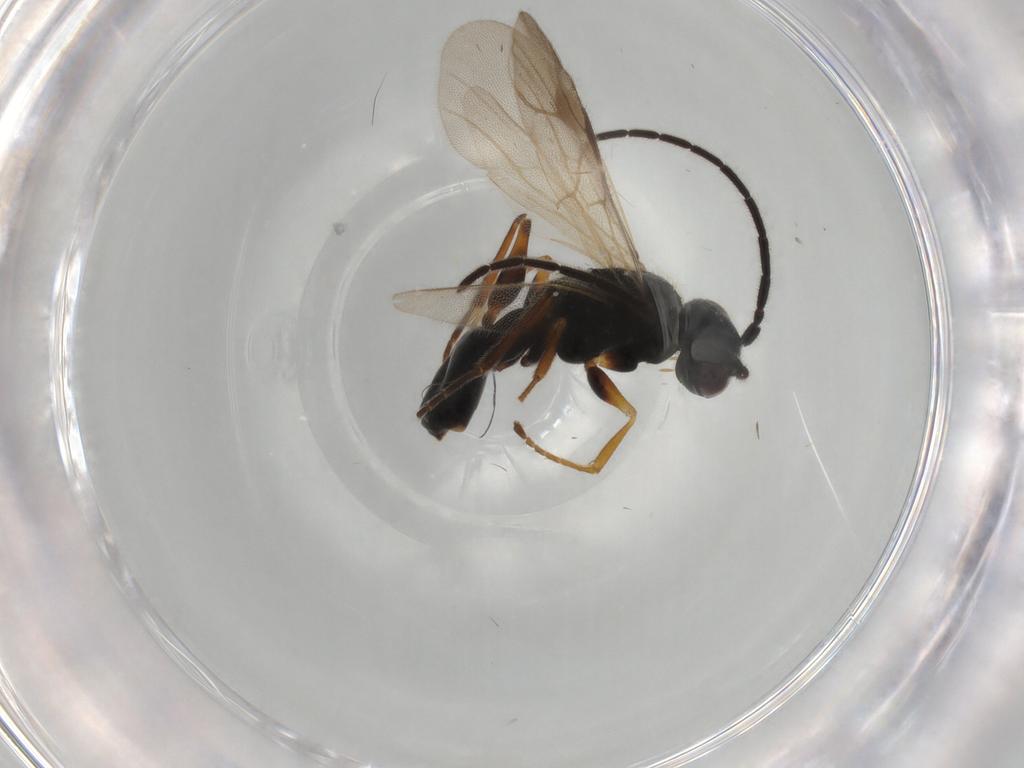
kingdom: Animalia
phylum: Arthropoda
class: Insecta
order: Hymenoptera
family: Dryinidae
